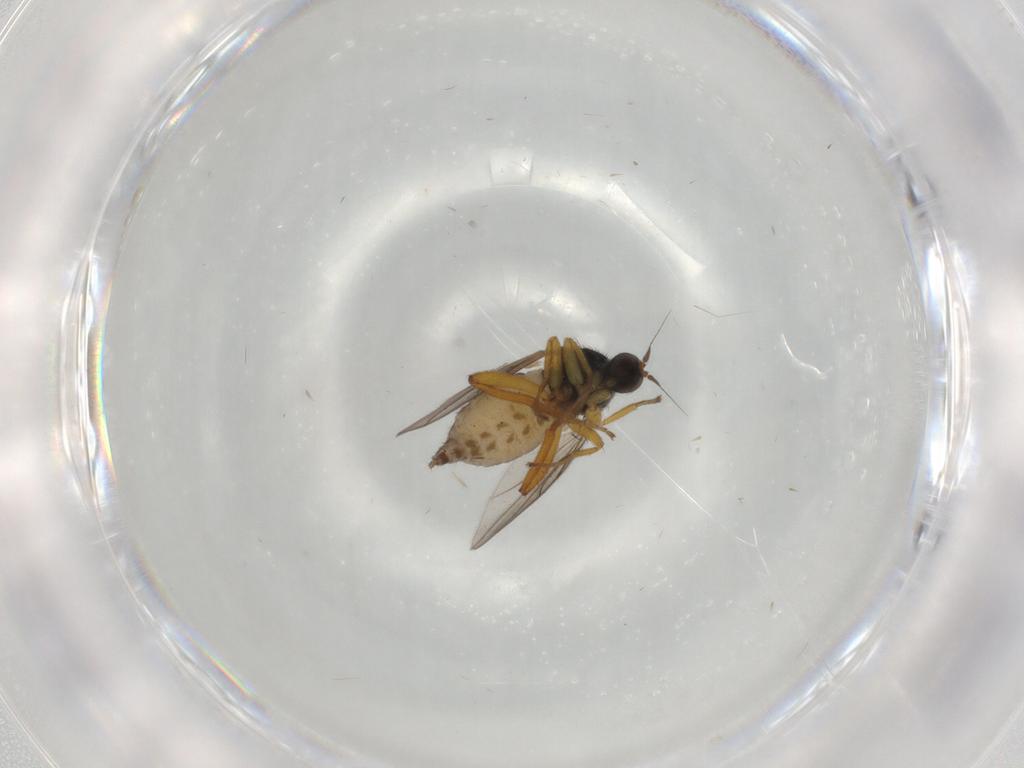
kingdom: Animalia
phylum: Arthropoda
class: Insecta
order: Diptera
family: Hybotidae
